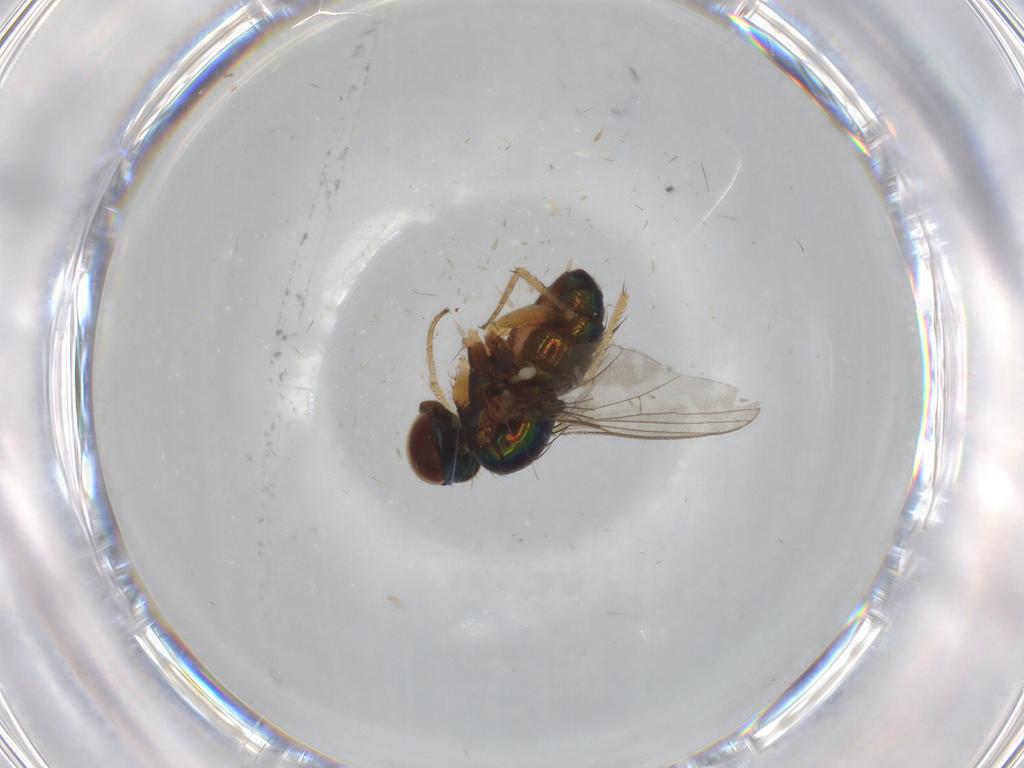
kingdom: Animalia
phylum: Arthropoda
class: Insecta
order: Diptera
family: Psychodidae
